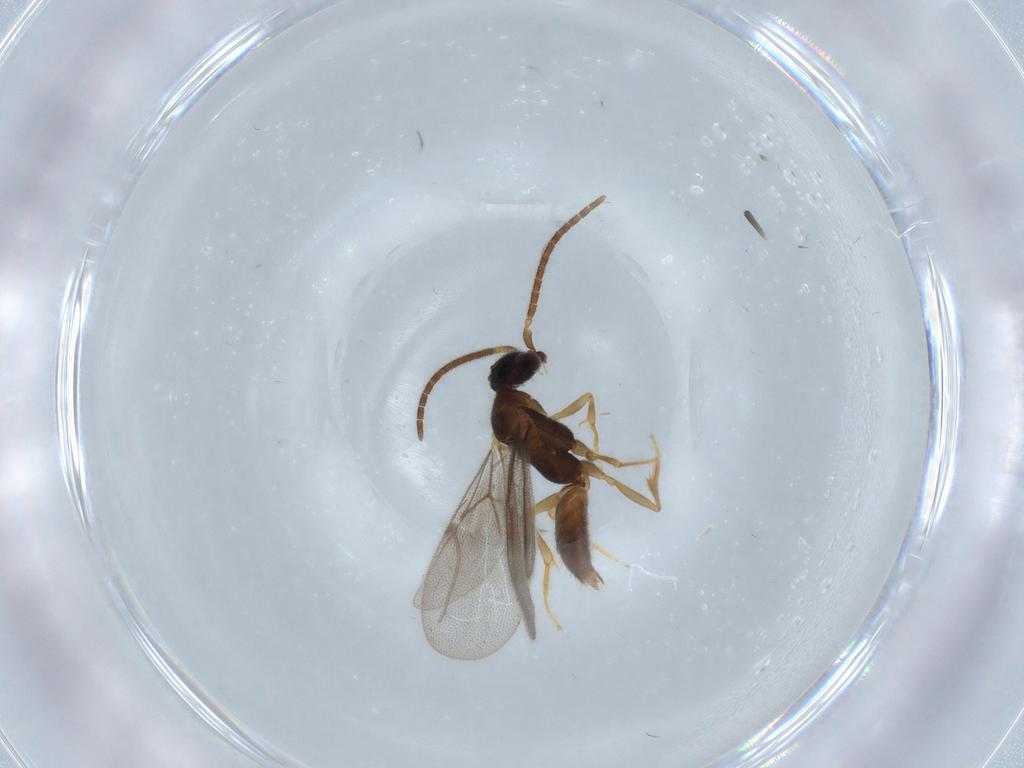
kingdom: Animalia
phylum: Arthropoda
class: Insecta
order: Hymenoptera
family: Bethylidae
